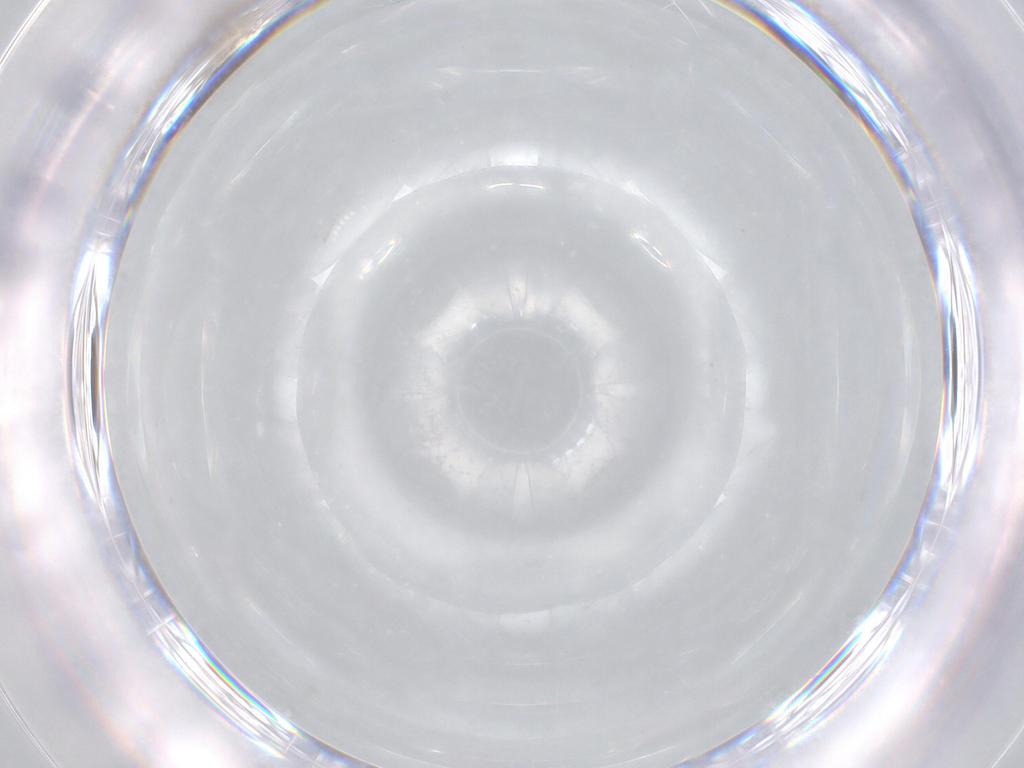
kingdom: Animalia
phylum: Arthropoda
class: Insecta
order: Diptera
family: Cecidomyiidae
